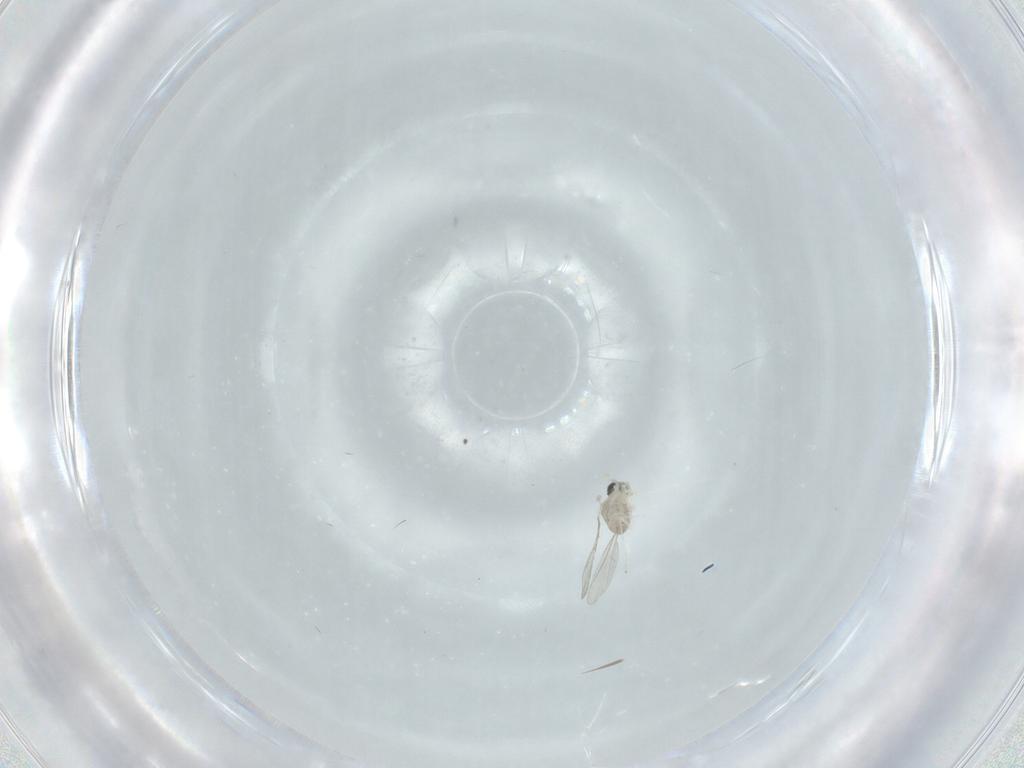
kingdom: Animalia
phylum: Arthropoda
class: Insecta
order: Diptera
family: Cecidomyiidae
